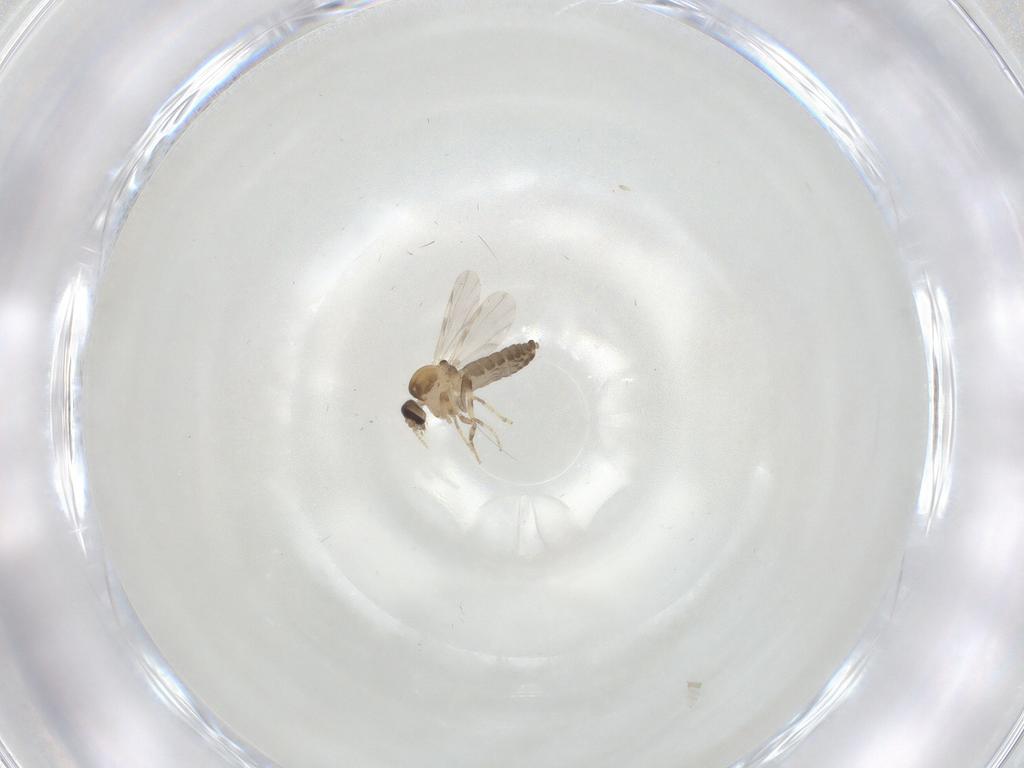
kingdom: Animalia
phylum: Arthropoda
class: Insecta
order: Diptera
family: Ceratopogonidae
